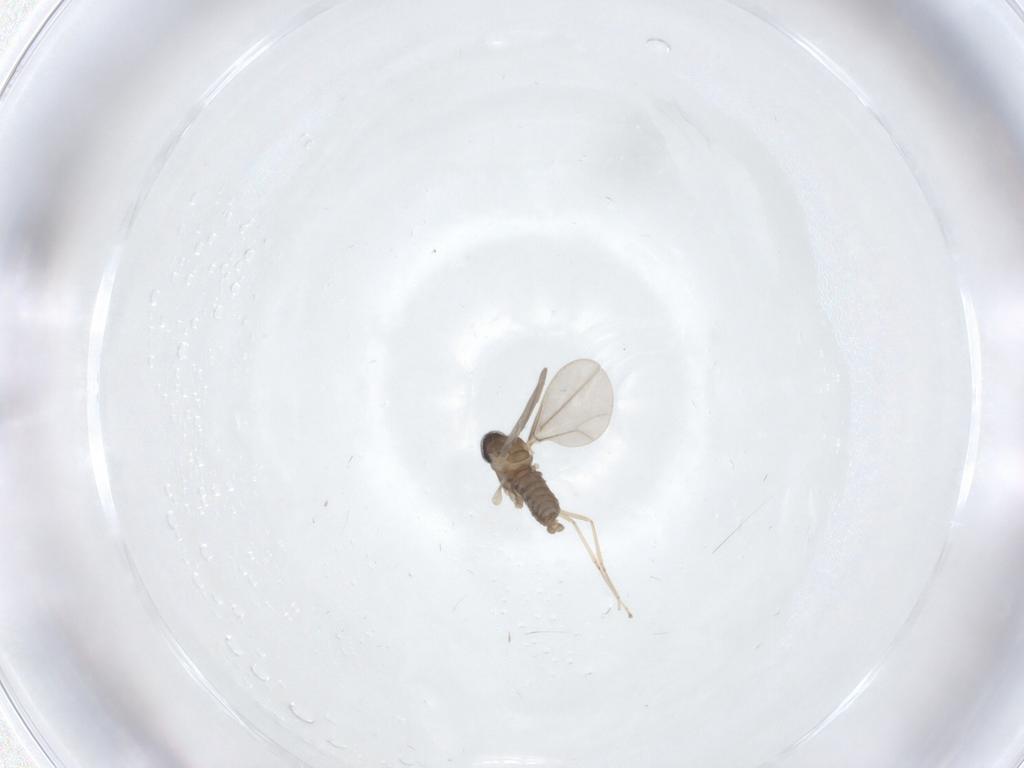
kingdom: Animalia
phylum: Arthropoda
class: Insecta
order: Diptera
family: Cecidomyiidae
